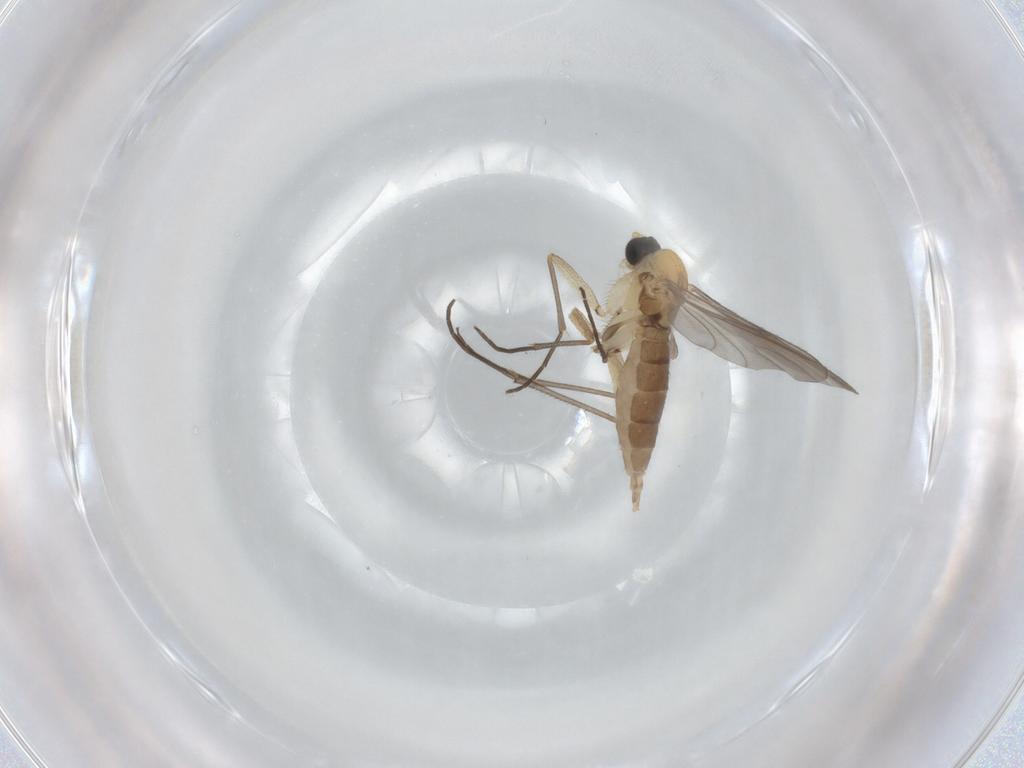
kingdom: Animalia
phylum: Arthropoda
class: Insecta
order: Diptera
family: Sciaridae
